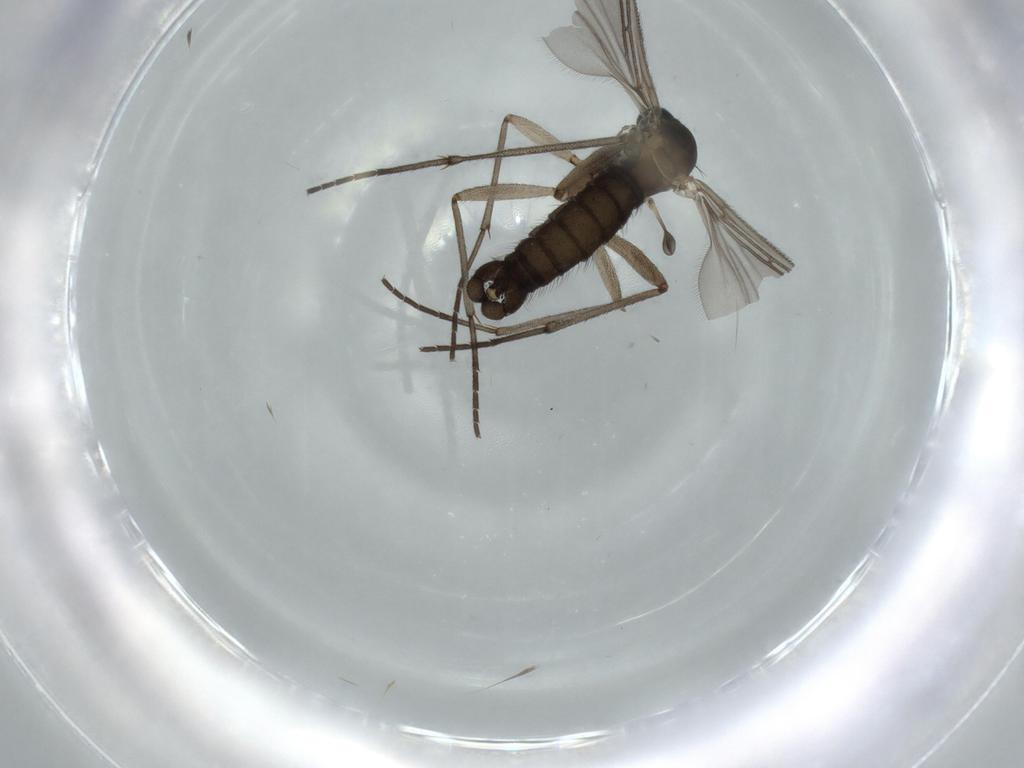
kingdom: Animalia
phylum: Arthropoda
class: Insecta
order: Diptera
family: Sciaridae
